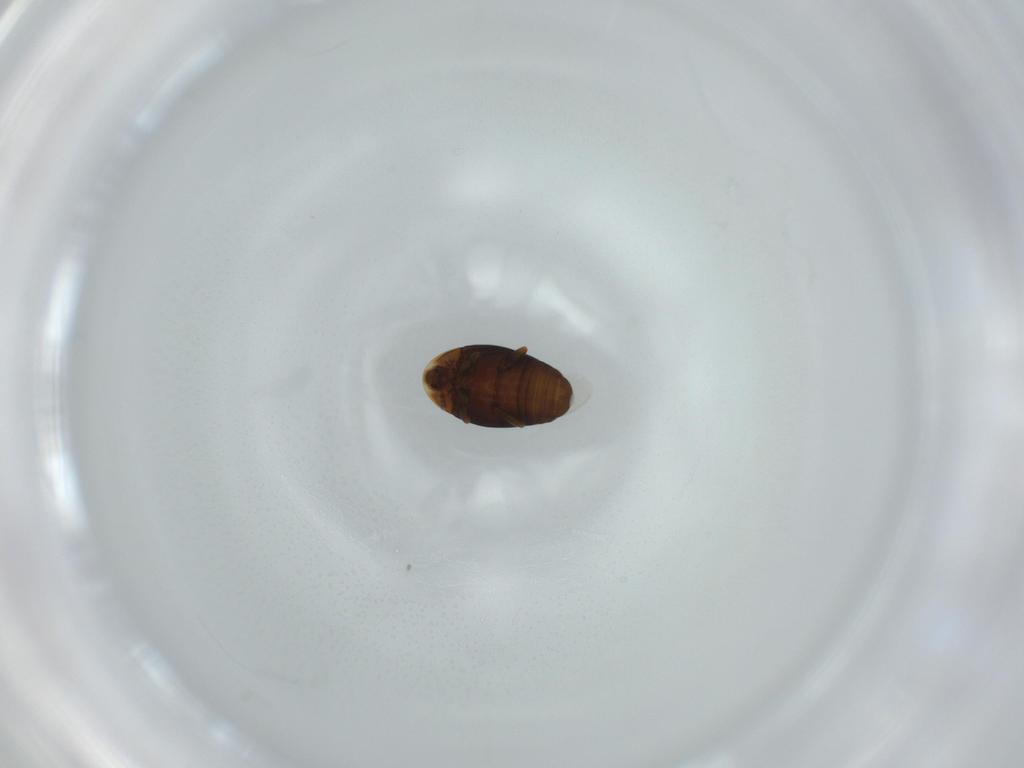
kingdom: Animalia
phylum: Arthropoda
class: Insecta
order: Coleoptera
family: Corylophidae
